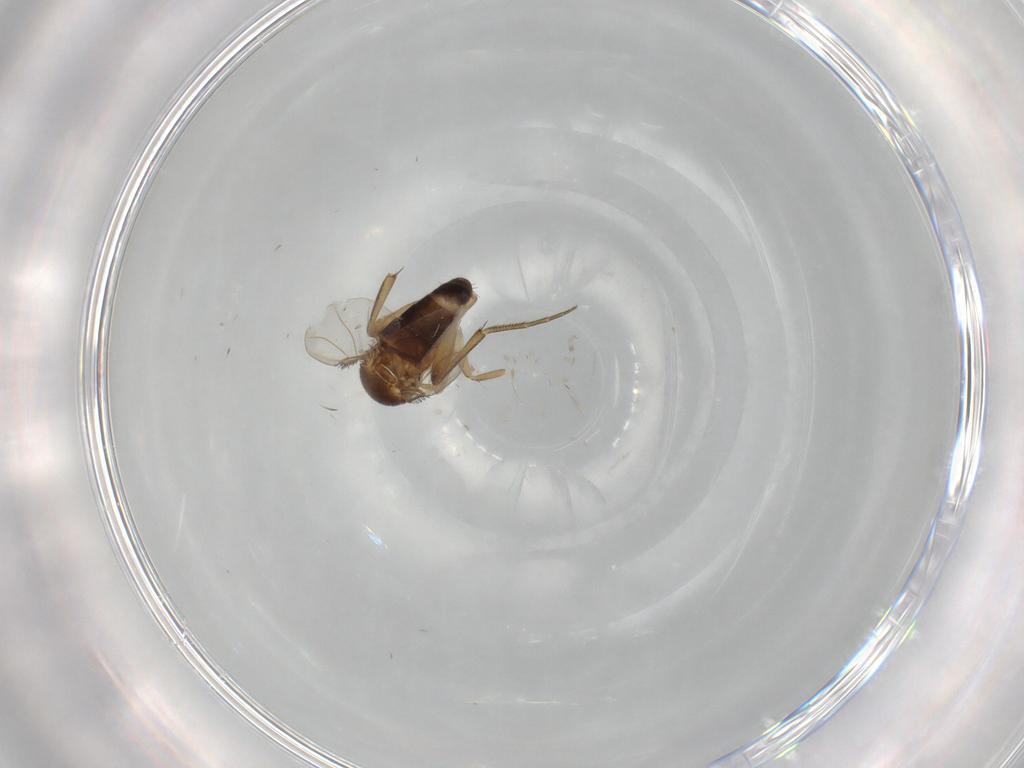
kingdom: Animalia
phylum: Arthropoda
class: Insecta
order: Diptera
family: Phoridae
